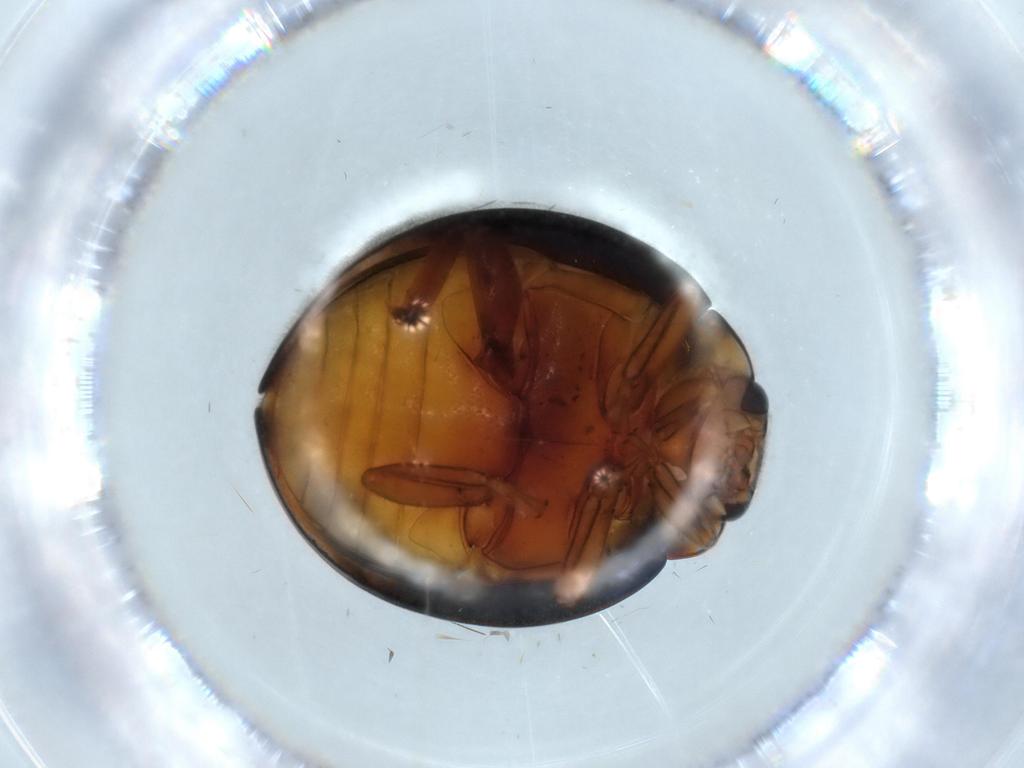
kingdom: Animalia
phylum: Arthropoda
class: Insecta
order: Coleoptera
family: Coccinellidae
